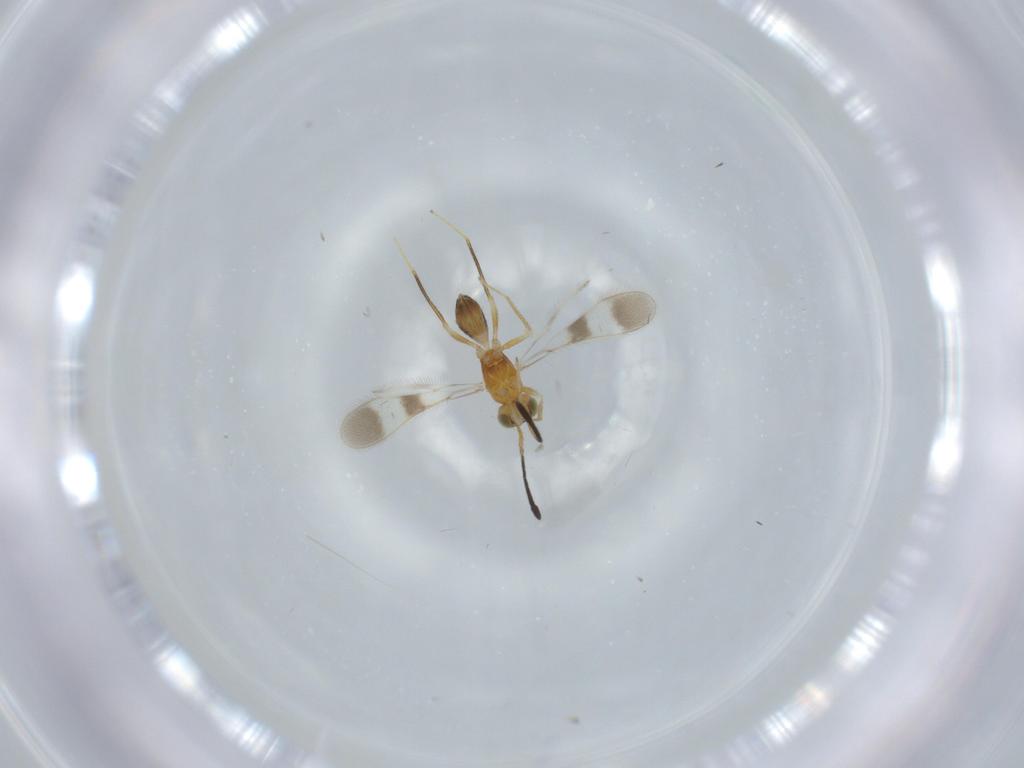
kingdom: Animalia
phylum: Arthropoda
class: Insecta
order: Hymenoptera
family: Mymaridae
